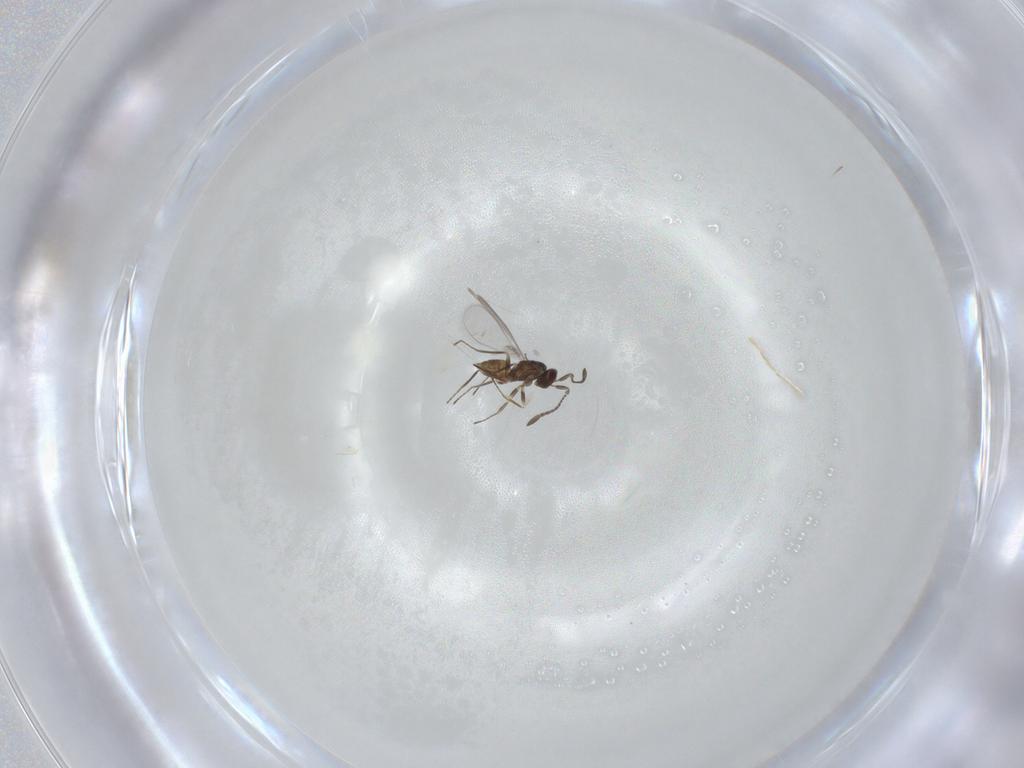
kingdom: Animalia
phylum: Arthropoda
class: Insecta
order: Hymenoptera
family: Mymaridae
